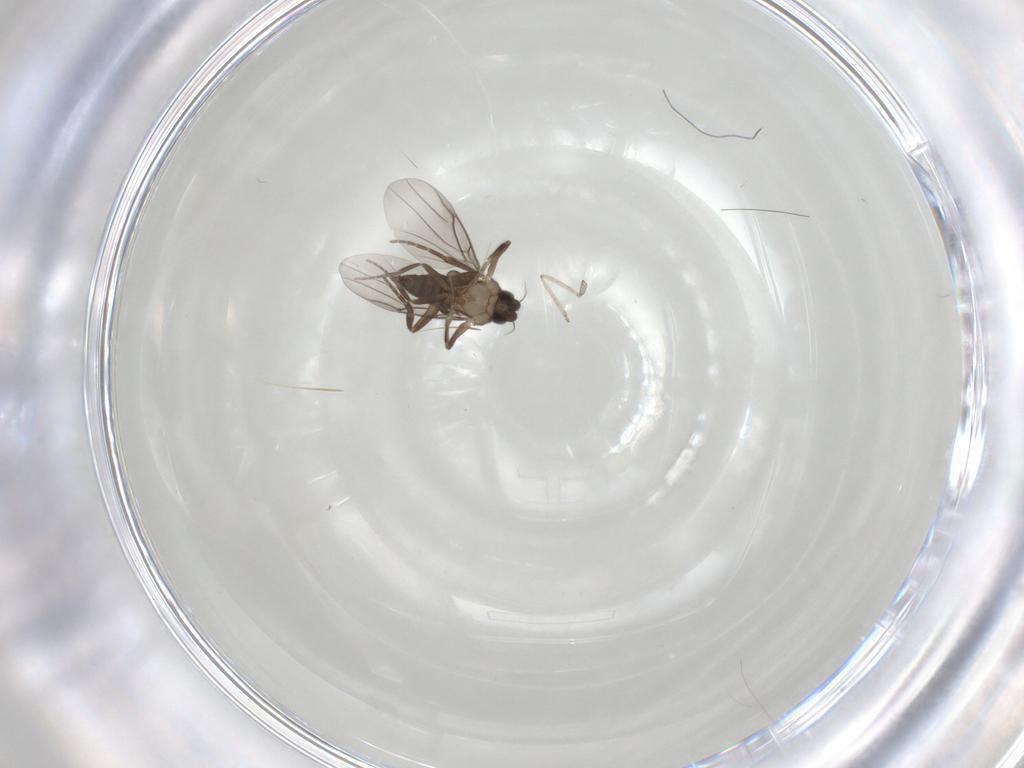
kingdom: Animalia
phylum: Arthropoda
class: Insecta
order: Diptera
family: Phoridae
